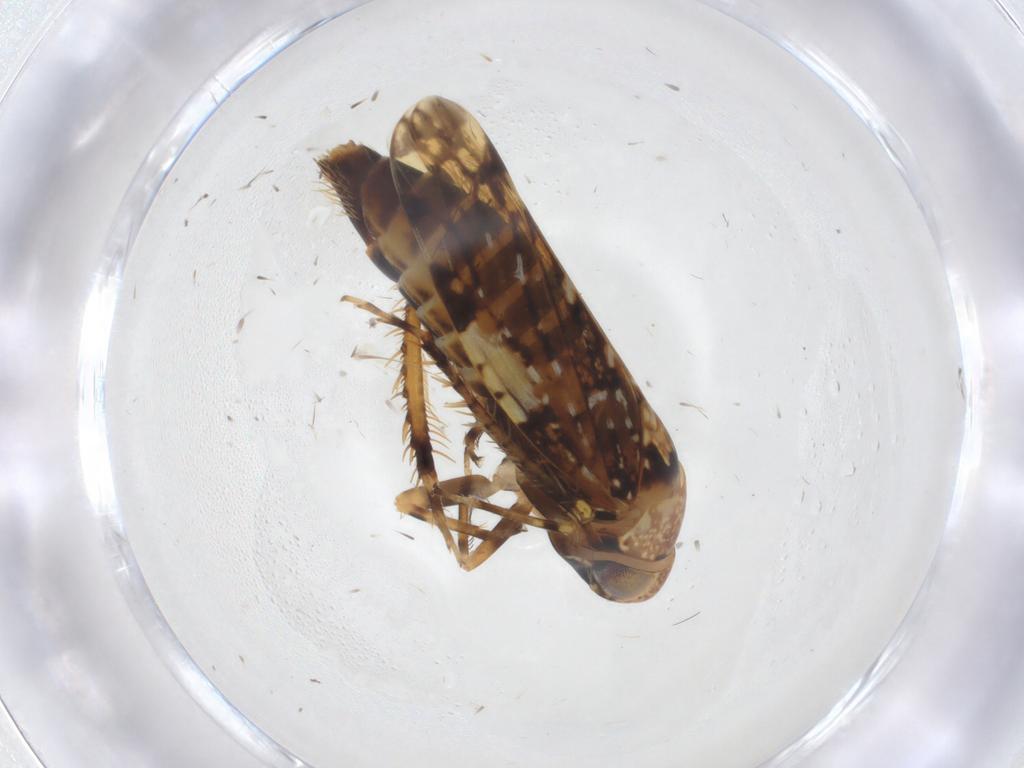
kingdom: Animalia
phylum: Arthropoda
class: Insecta
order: Hemiptera
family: Cicadellidae
